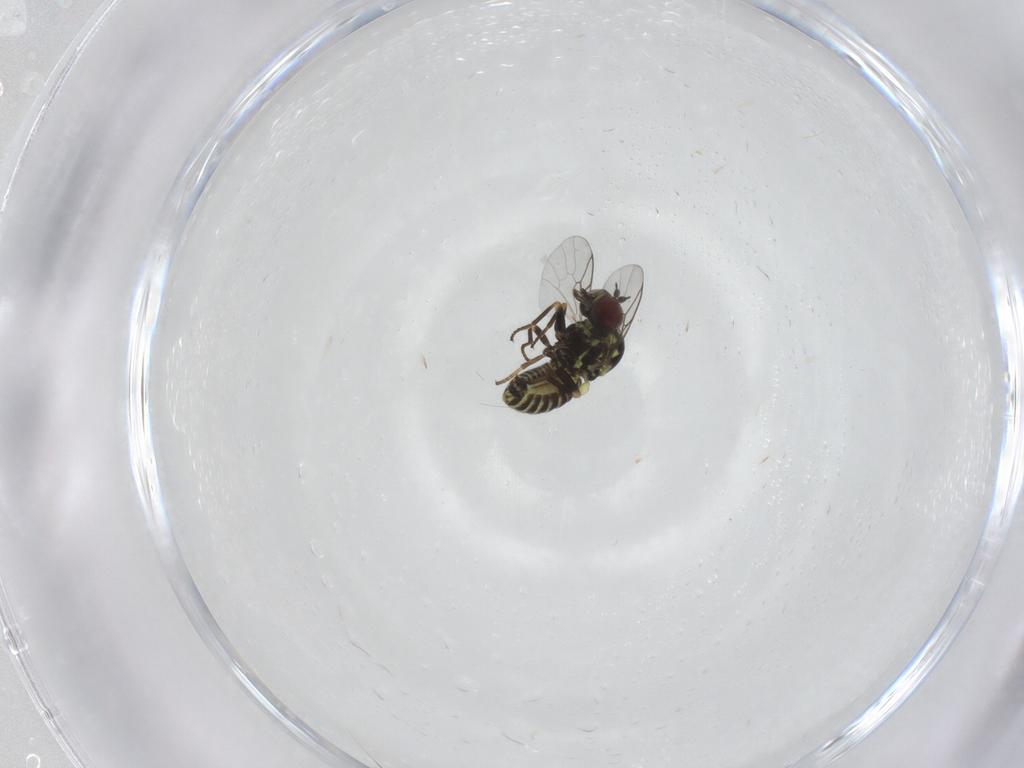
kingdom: Animalia
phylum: Arthropoda
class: Insecta
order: Diptera
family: Mythicomyiidae
